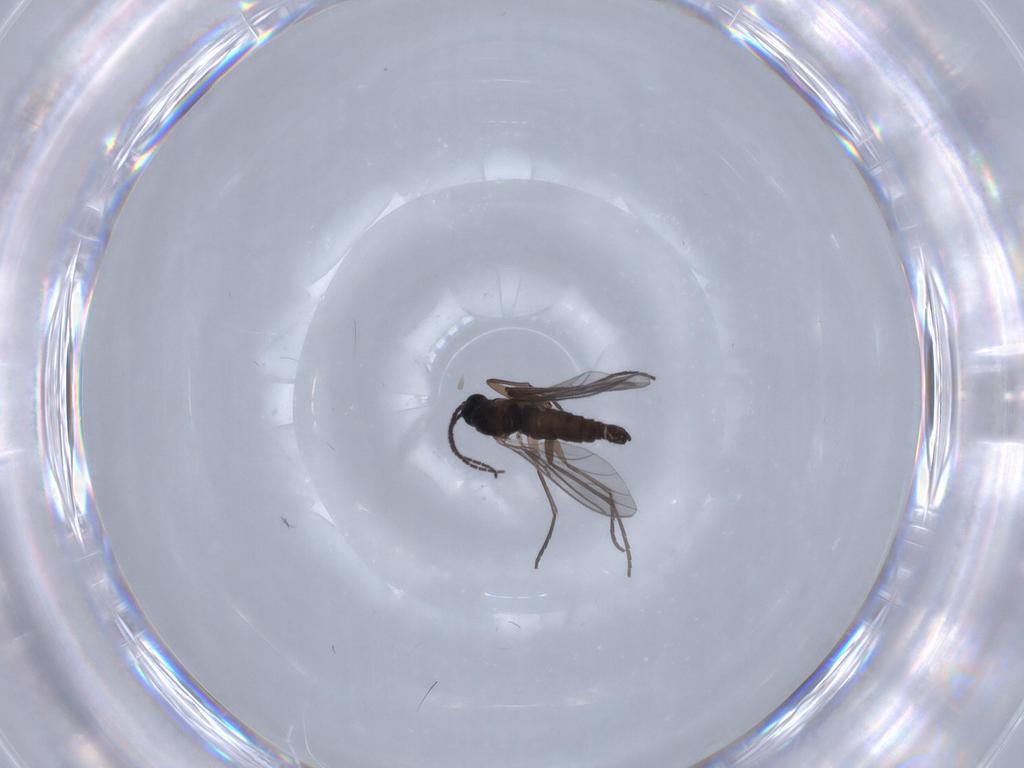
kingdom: Animalia
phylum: Arthropoda
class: Insecta
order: Diptera
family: Sciaridae
